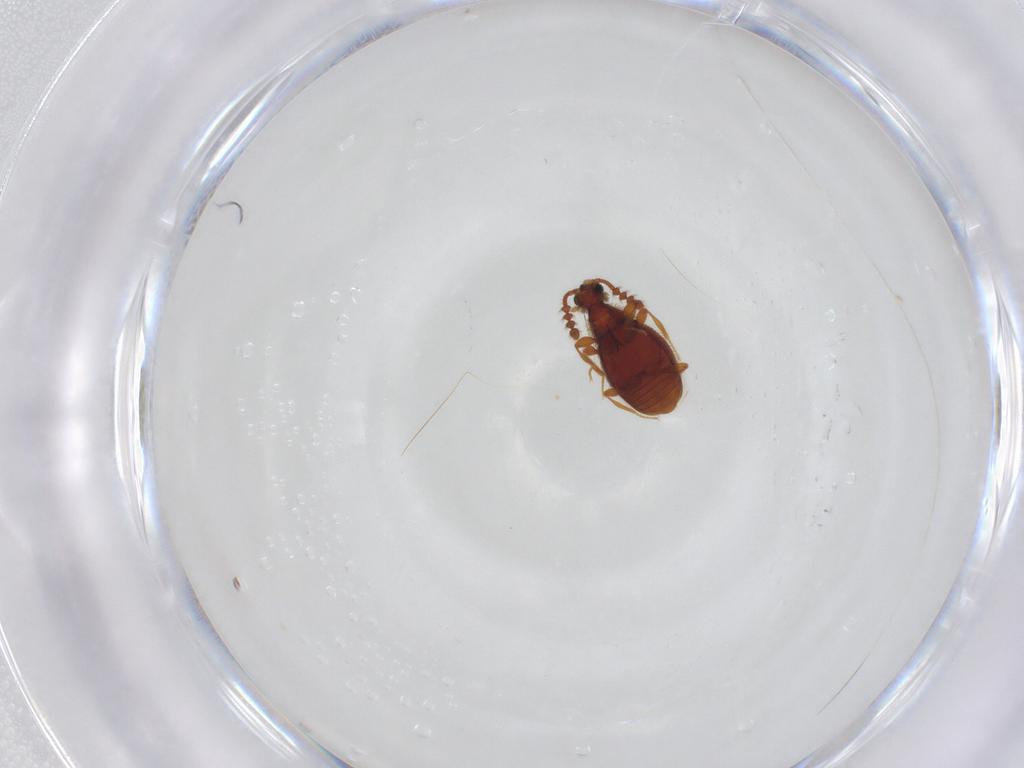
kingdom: Animalia
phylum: Arthropoda
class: Insecta
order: Coleoptera
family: Staphylinidae
